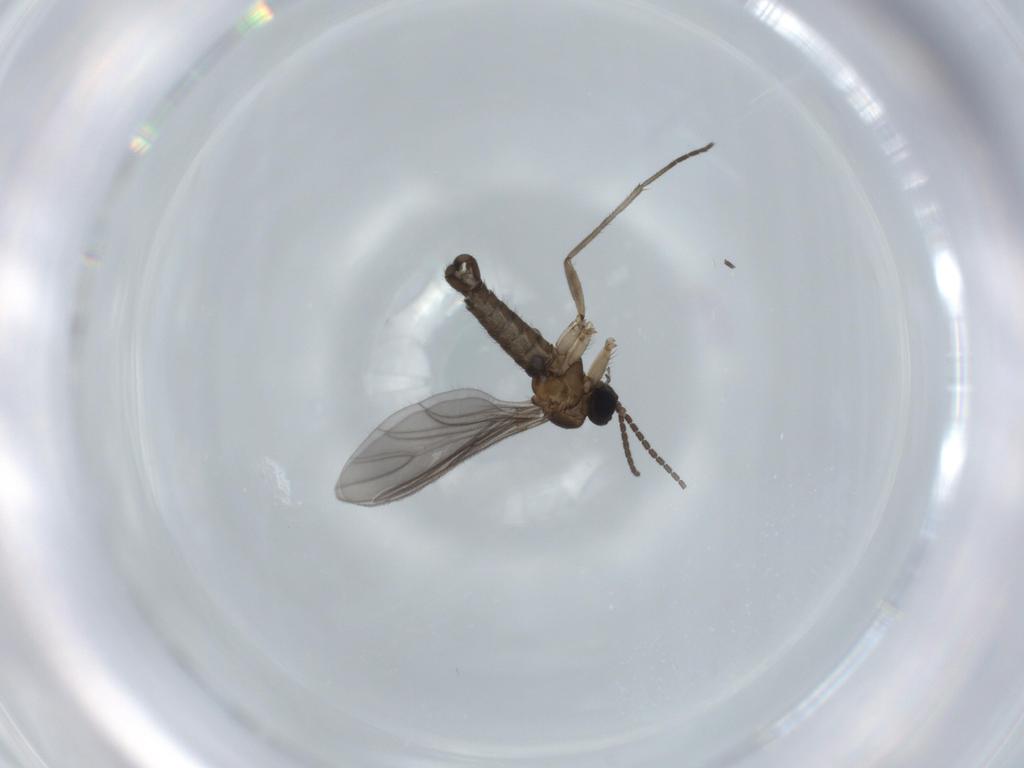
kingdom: Animalia
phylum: Arthropoda
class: Insecta
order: Diptera
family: Sciaridae
